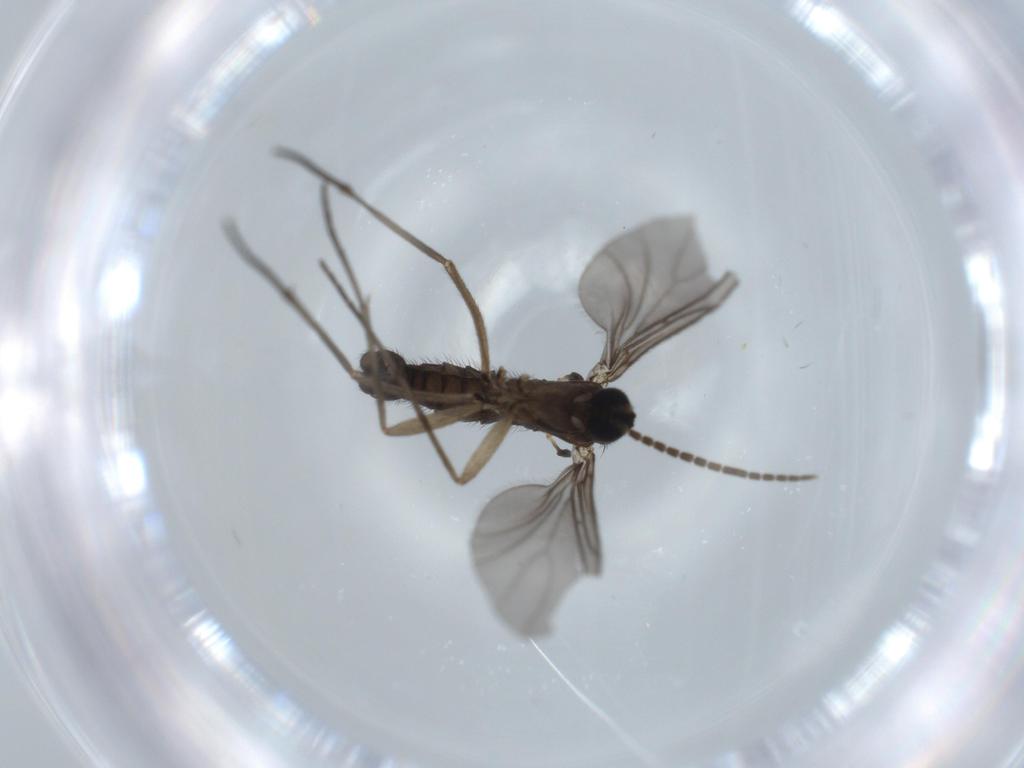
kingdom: Animalia
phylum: Arthropoda
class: Insecta
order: Diptera
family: Sciaridae
